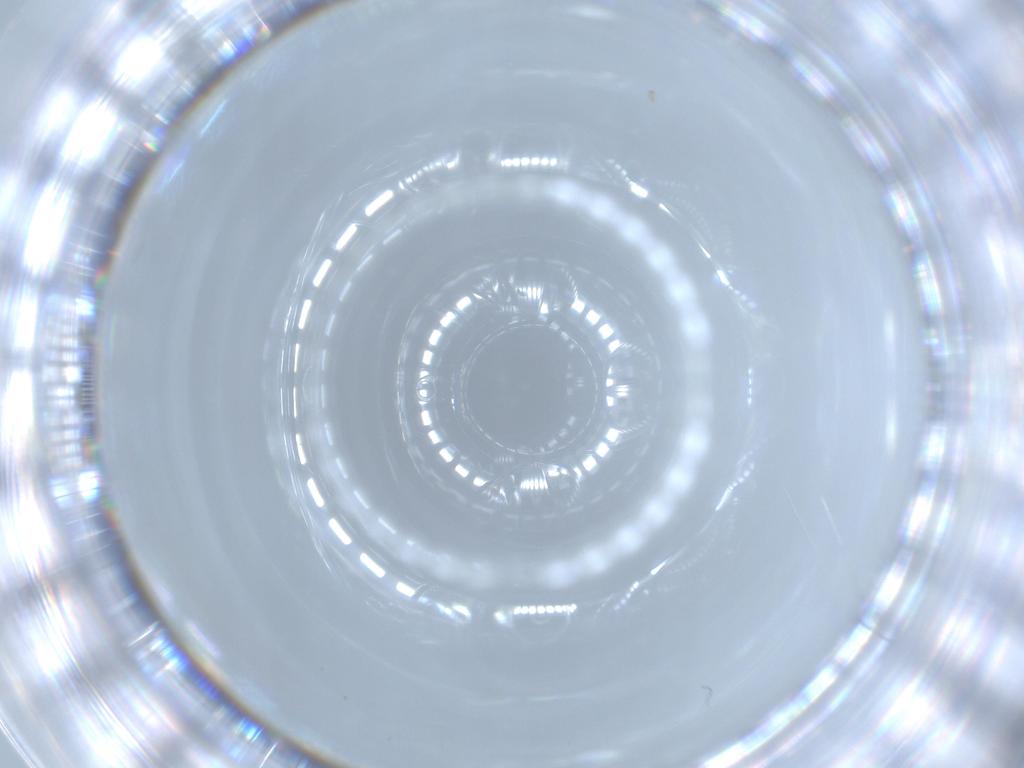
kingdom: Animalia
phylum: Arthropoda
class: Insecta
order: Hymenoptera
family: Trichogrammatidae
